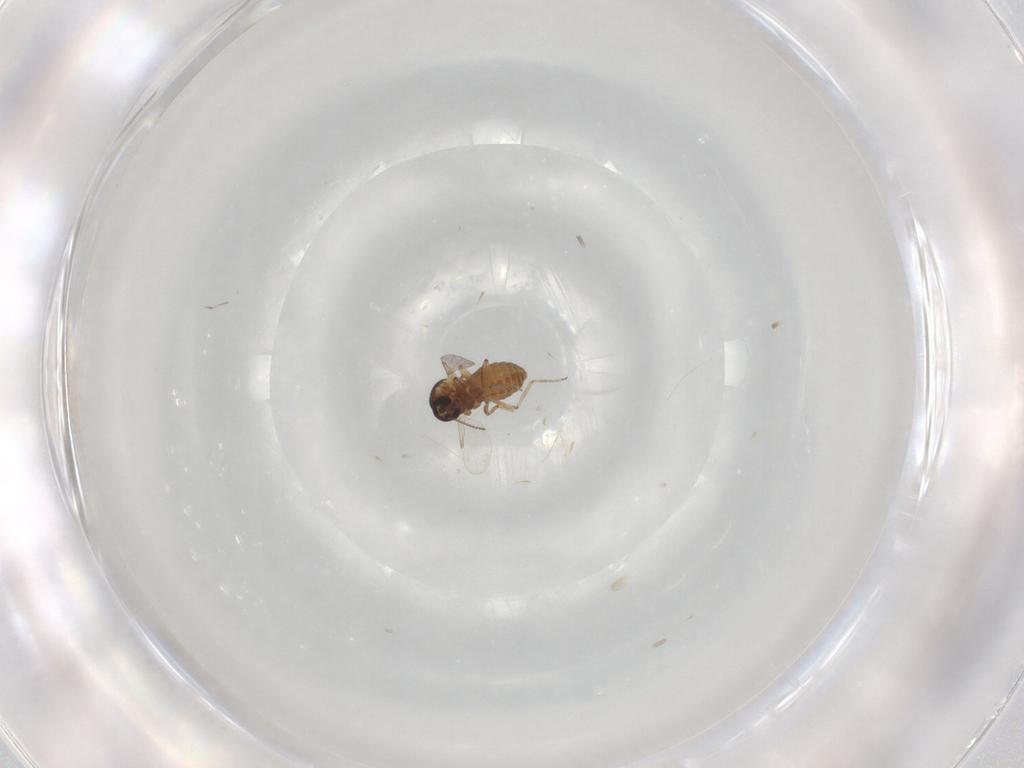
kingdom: Animalia
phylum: Arthropoda
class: Insecta
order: Diptera
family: Ceratopogonidae
